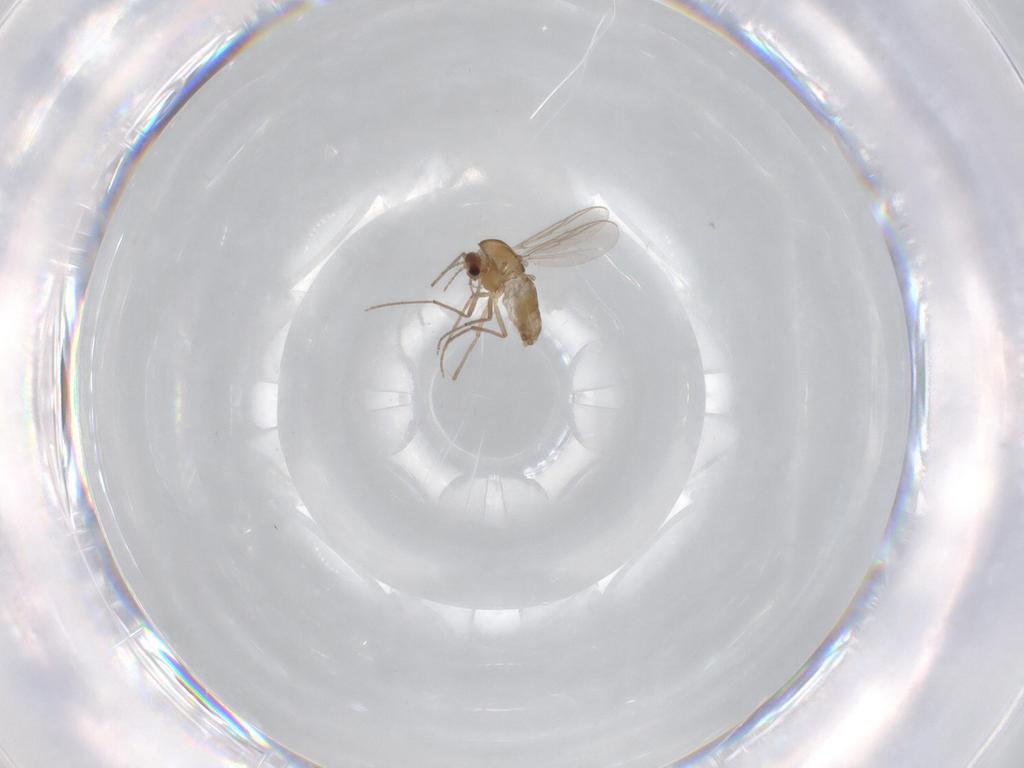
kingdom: Animalia
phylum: Arthropoda
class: Insecta
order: Diptera
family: Chironomidae
